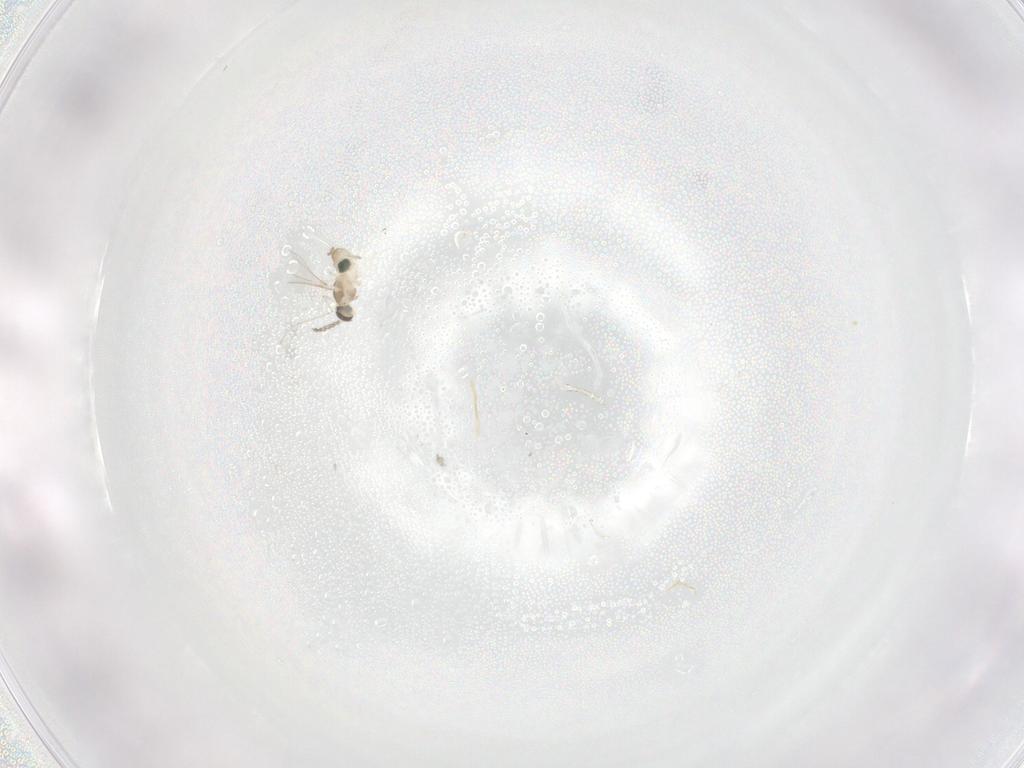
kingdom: Animalia
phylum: Arthropoda
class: Insecta
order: Diptera
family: Cecidomyiidae
